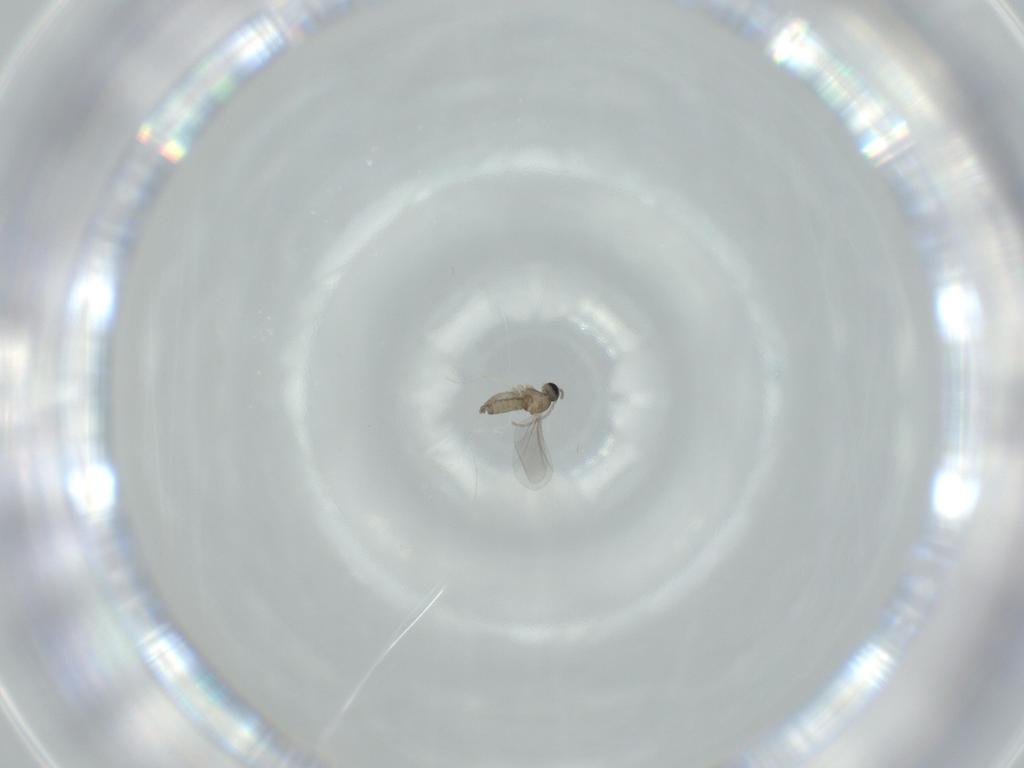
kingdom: Animalia
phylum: Arthropoda
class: Insecta
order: Diptera
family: Hybotidae
